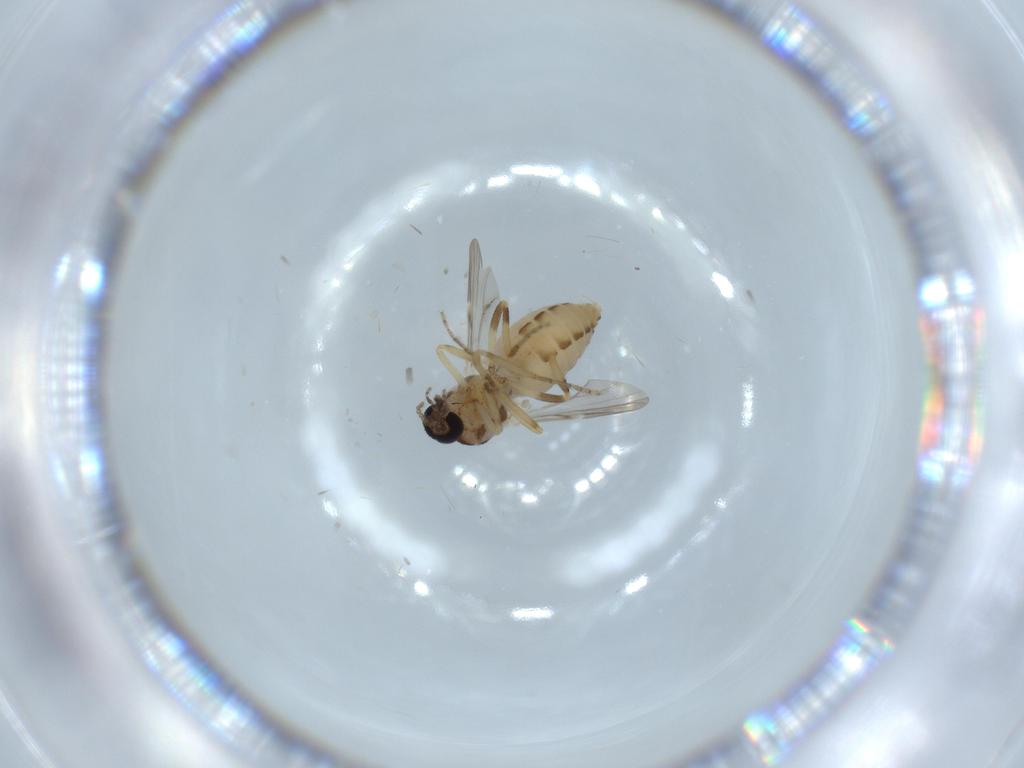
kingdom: Animalia
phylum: Arthropoda
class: Insecta
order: Diptera
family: Ceratopogonidae
